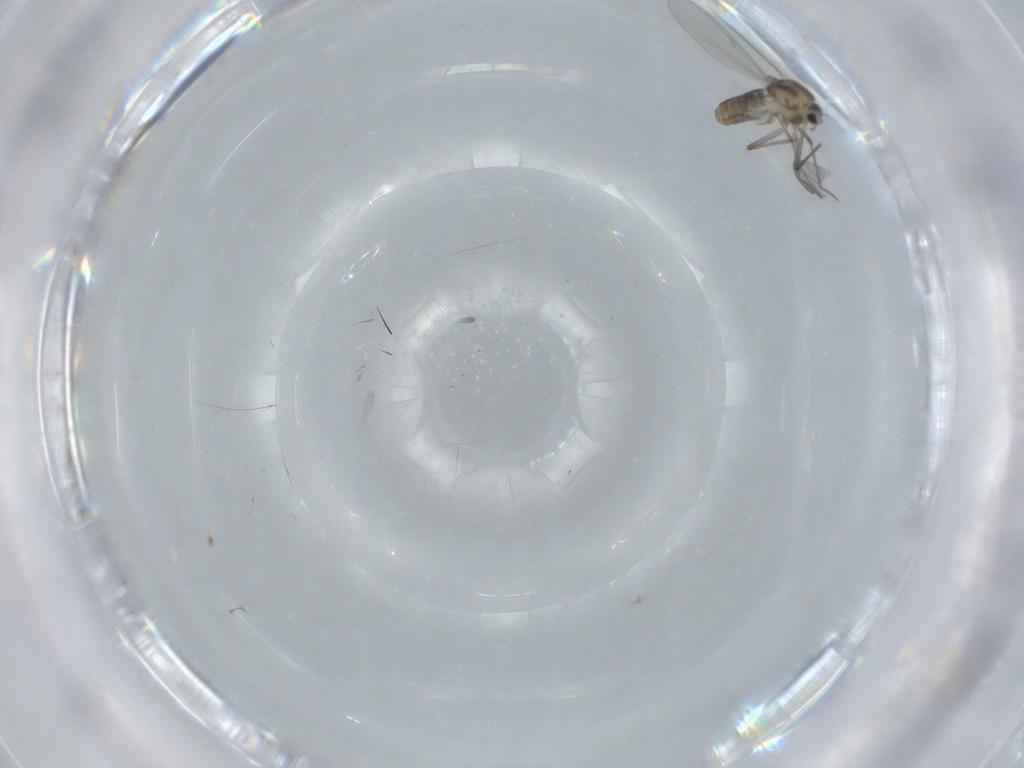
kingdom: Animalia
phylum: Arthropoda
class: Insecta
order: Diptera
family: Chironomidae
